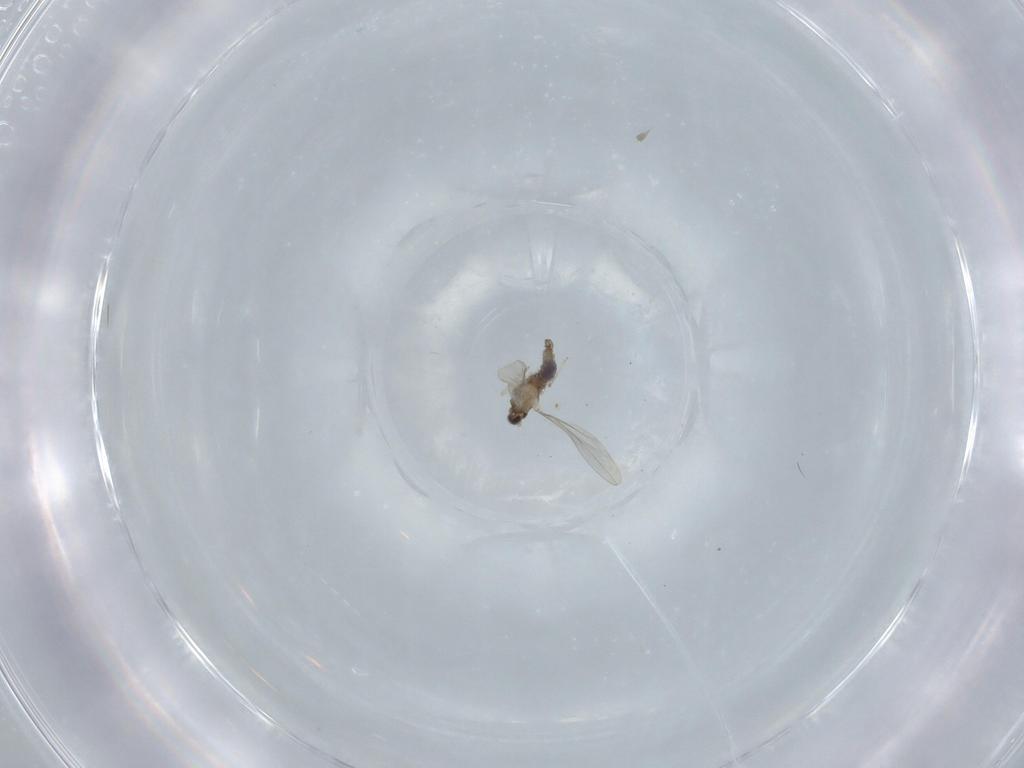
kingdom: Animalia
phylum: Arthropoda
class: Insecta
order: Diptera
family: Cecidomyiidae
